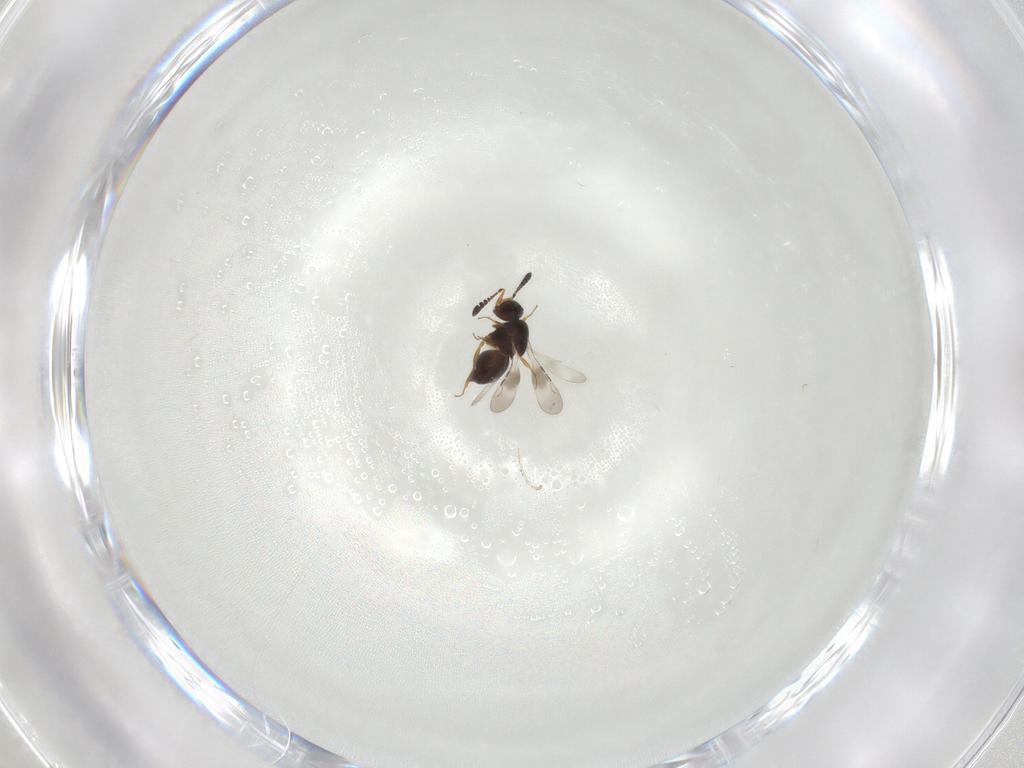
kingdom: Animalia
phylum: Arthropoda
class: Insecta
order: Hymenoptera
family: Ceraphronidae
